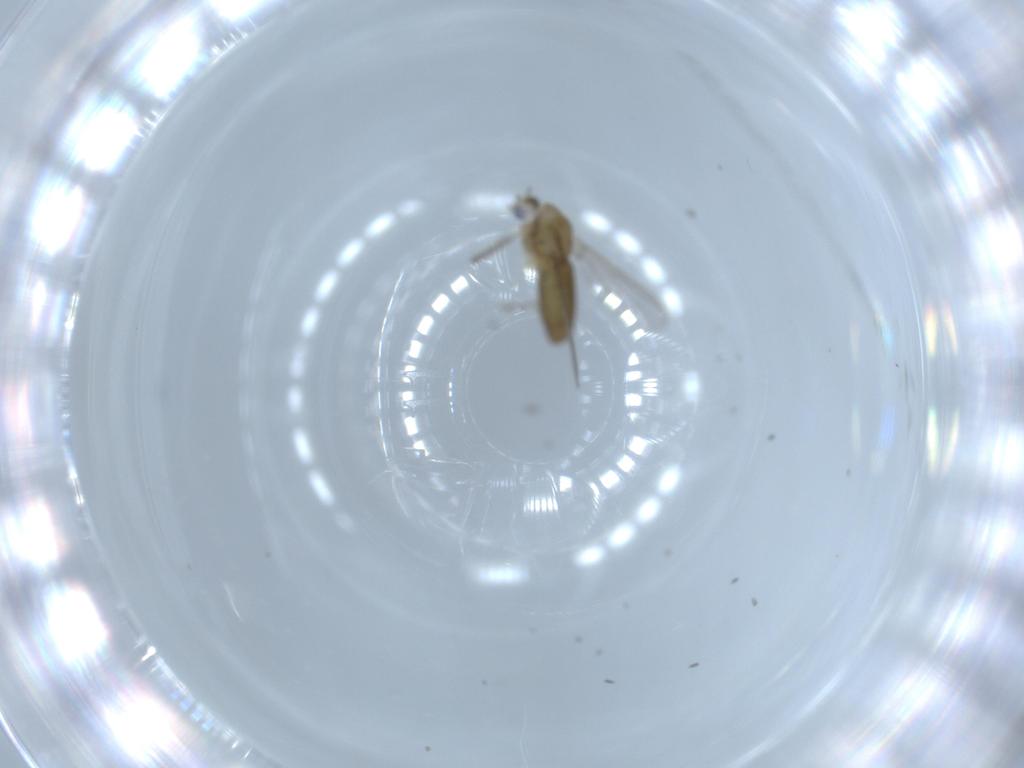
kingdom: Animalia
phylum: Arthropoda
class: Insecta
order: Diptera
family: Chironomidae
